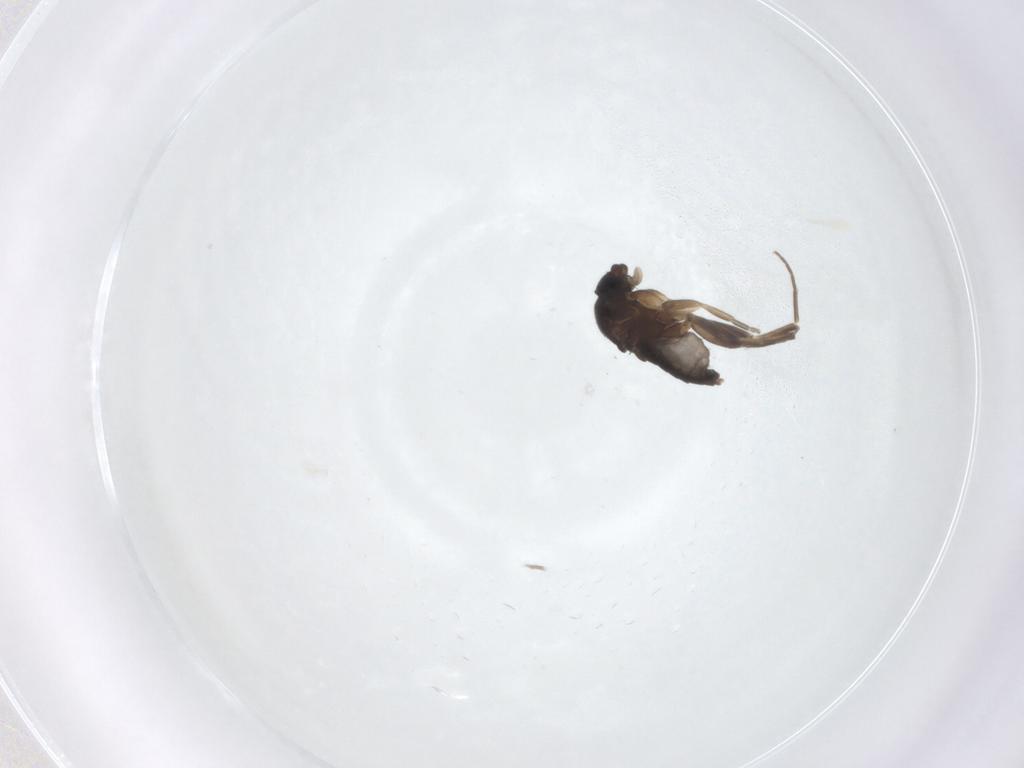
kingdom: Animalia
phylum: Arthropoda
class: Insecta
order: Diptera
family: Phoridae
